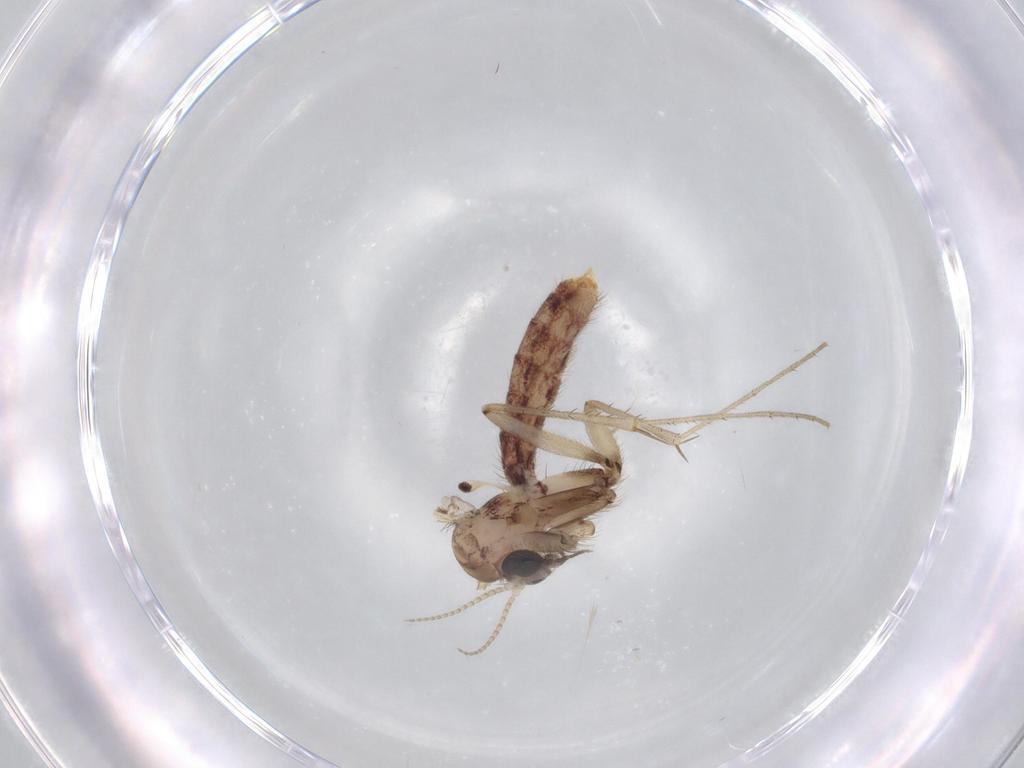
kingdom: Animalia
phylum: Arthropoda
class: Insecta
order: Diptera
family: Mycetophilidae
